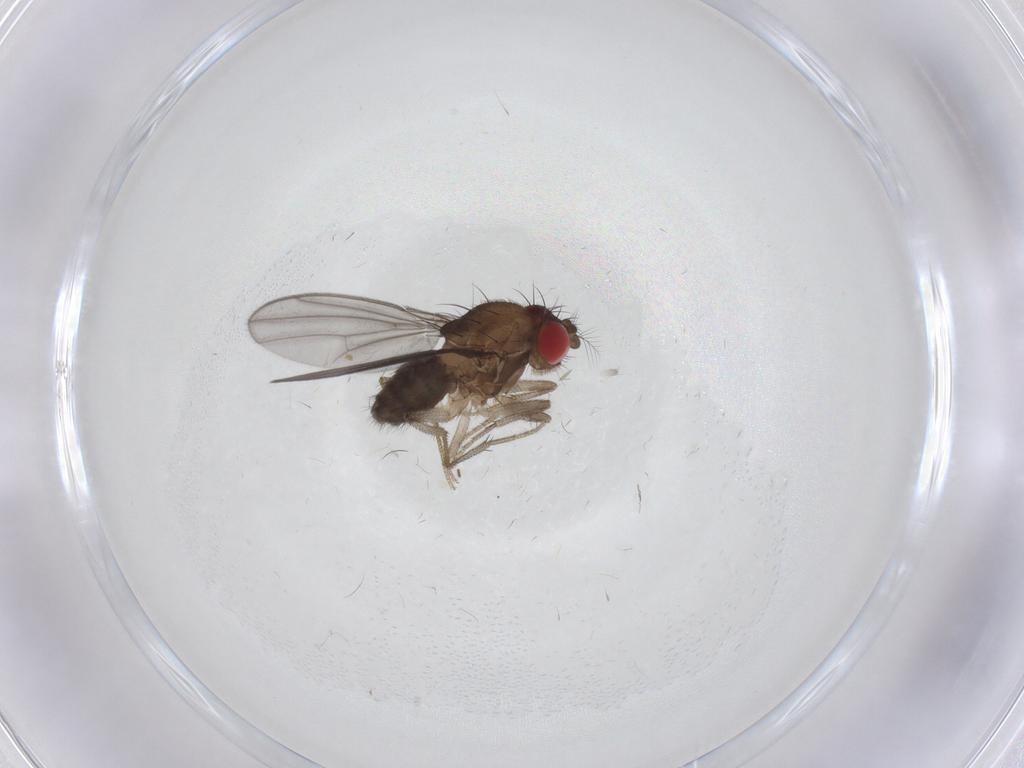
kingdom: Animalia
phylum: Arthropoda
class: Insecta
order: Diptera
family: Drosophilidae
